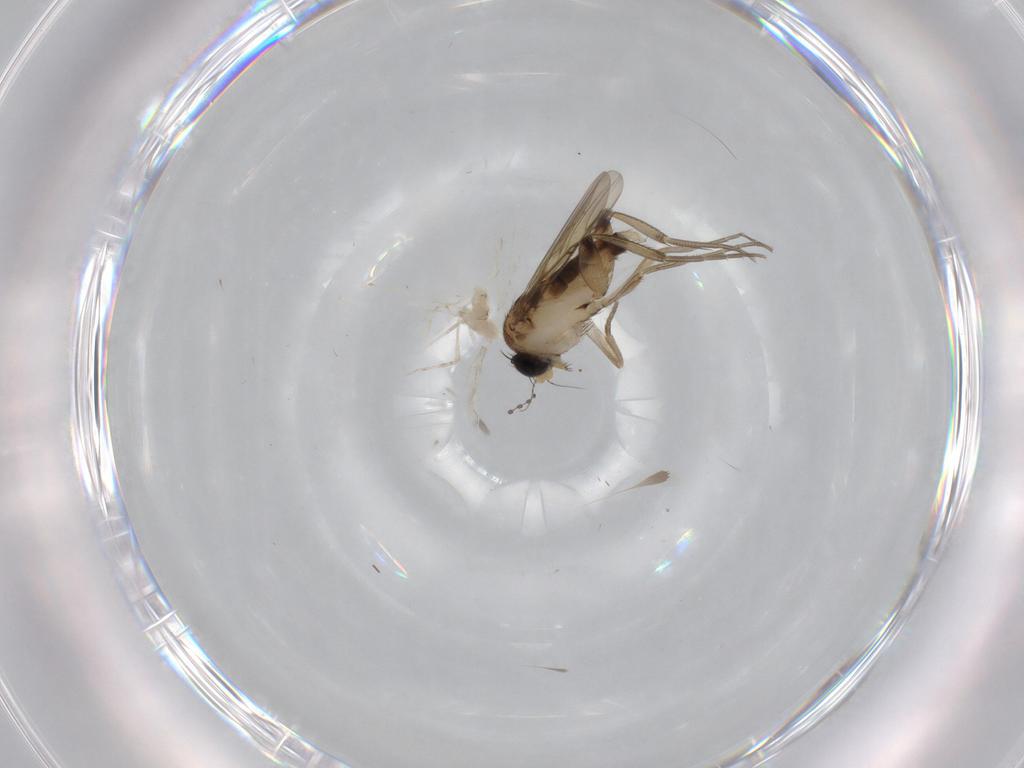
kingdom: Animalia
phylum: Arthropoda
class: Insecta
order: Diptera
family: Phoridae
